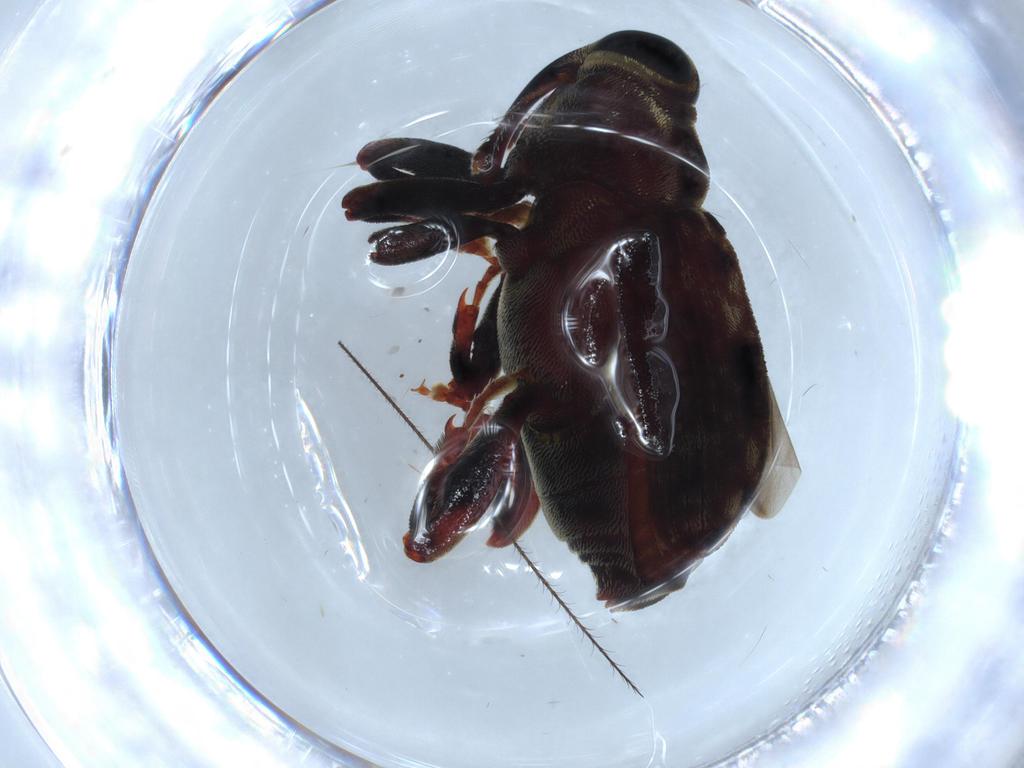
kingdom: Animalia
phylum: Arthropoda
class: Insecta
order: Coleoptera
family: Curculionidae
